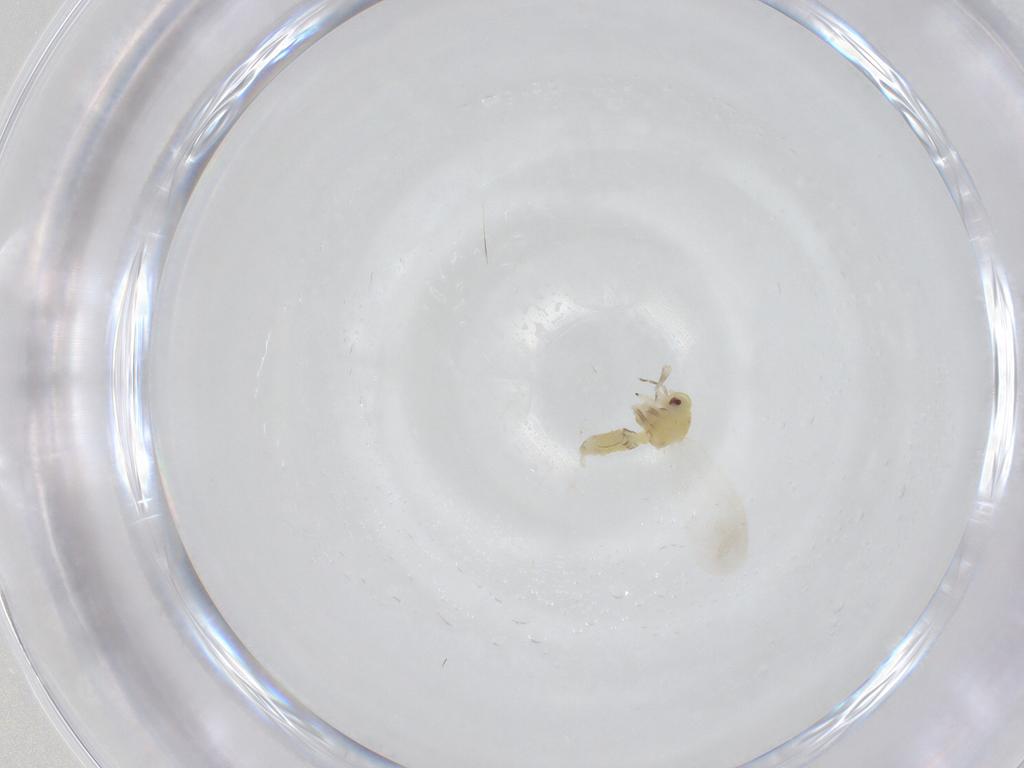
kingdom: Animalia
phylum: Arthropoda
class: Insecta
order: Hemiptera
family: Aleyrodidae
